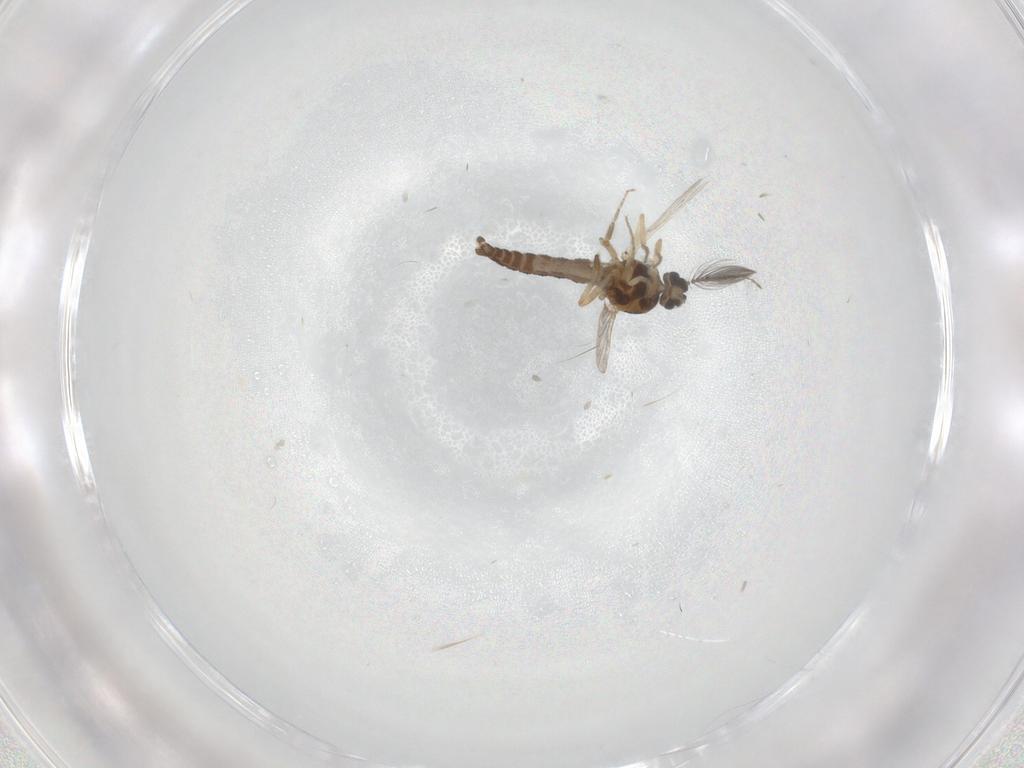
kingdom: Animalia
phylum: Arthropoda
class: Insecta
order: Diptera
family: Ceratopogonidae
